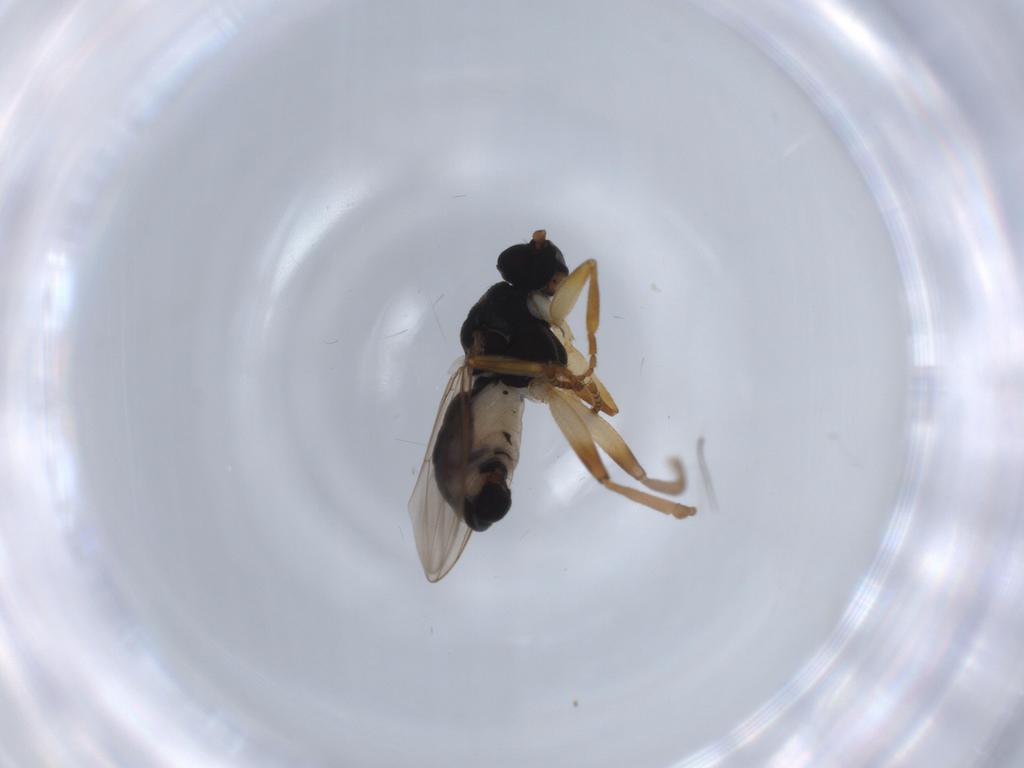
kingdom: Animalia
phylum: Arthropoda
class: Insecta
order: Diptera
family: Sphaeroceridae
